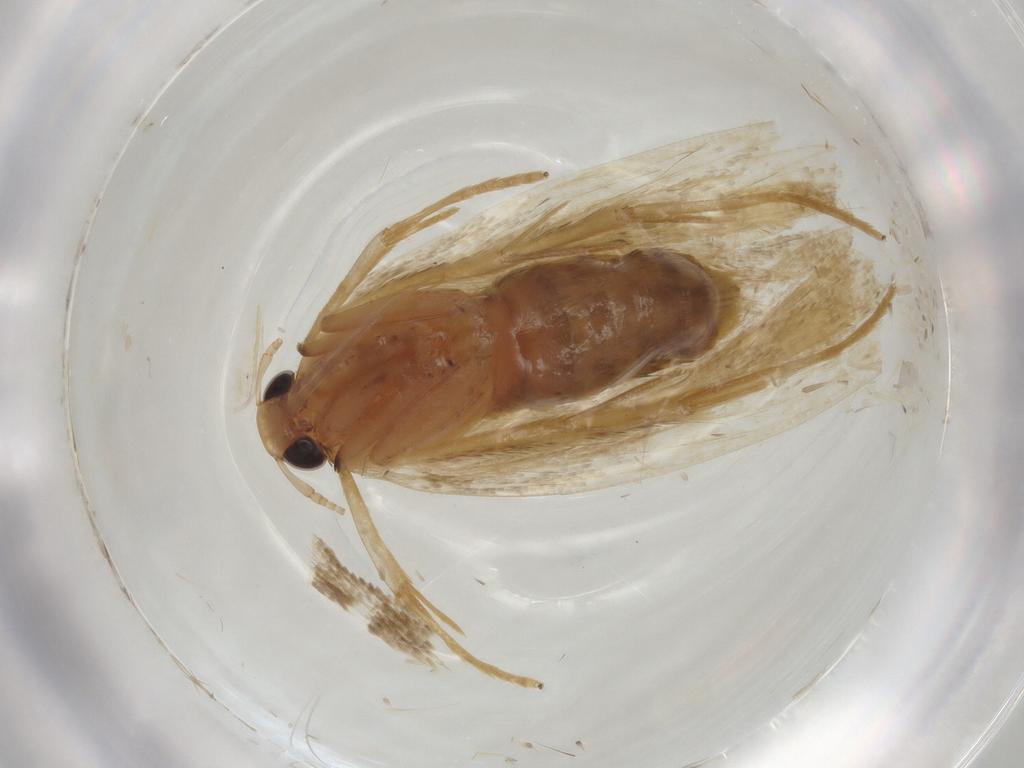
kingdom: Animalia
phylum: Arthropoda
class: Insecta
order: Lepidoptera
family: Lecithoceridae
